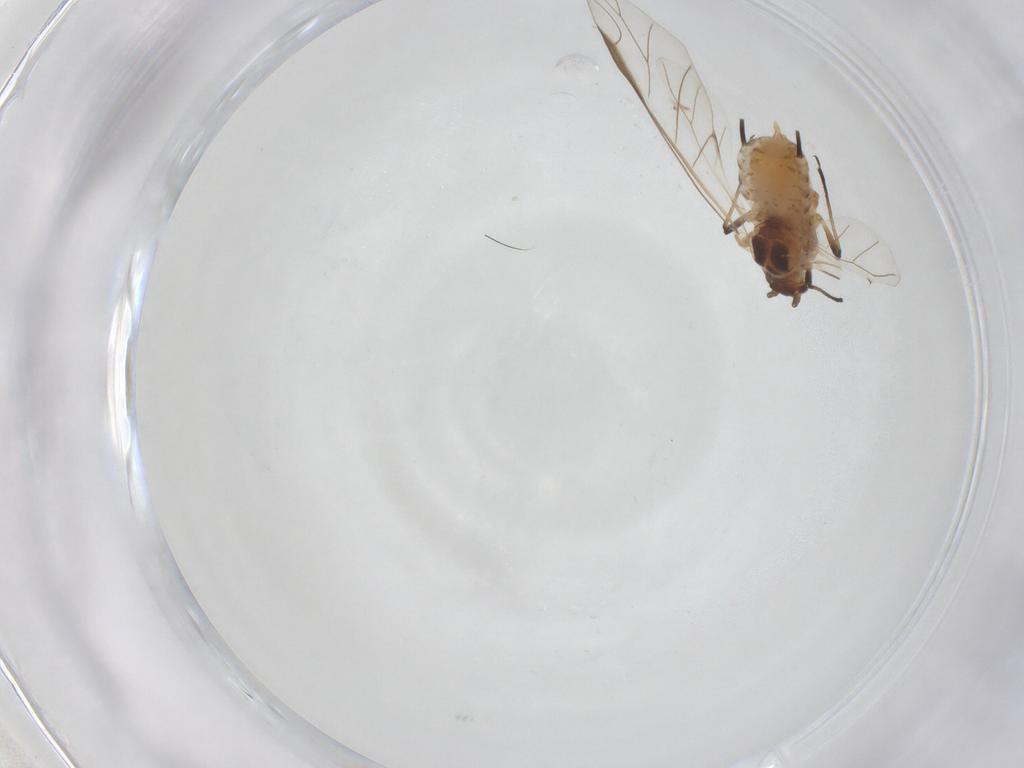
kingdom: Animalia
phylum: Arthropoda
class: Insecta
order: Hemiptera
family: Aphididae
